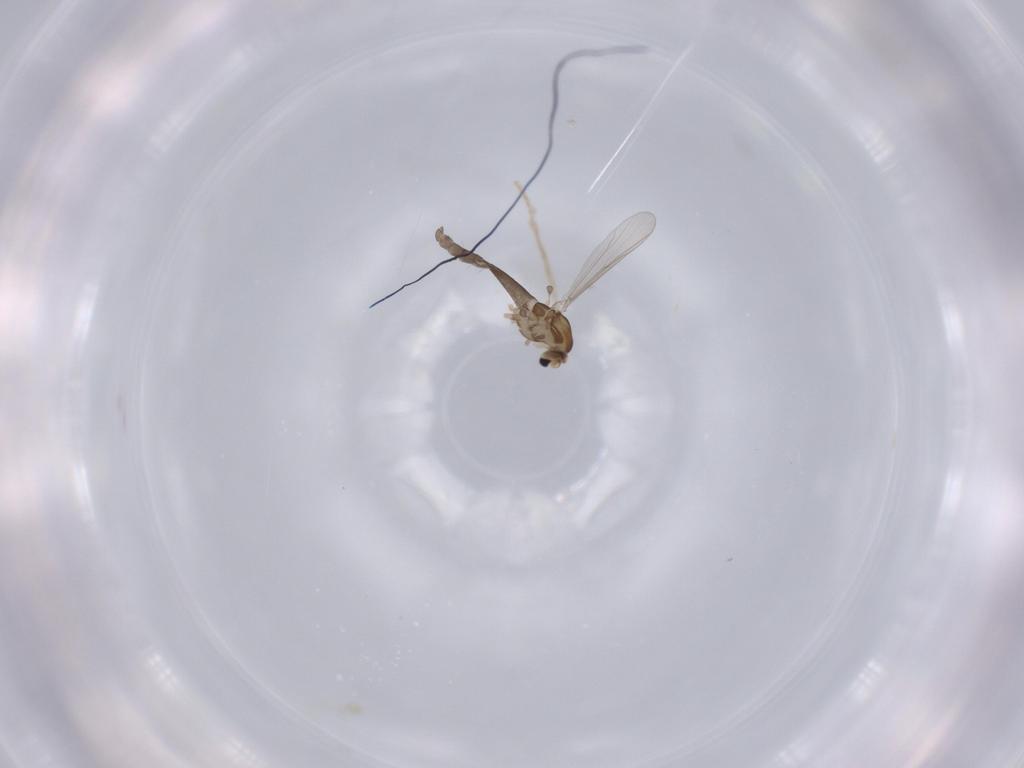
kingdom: Animalia
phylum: Arthropoda
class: Insecta
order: Diptera
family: Chironomidae
